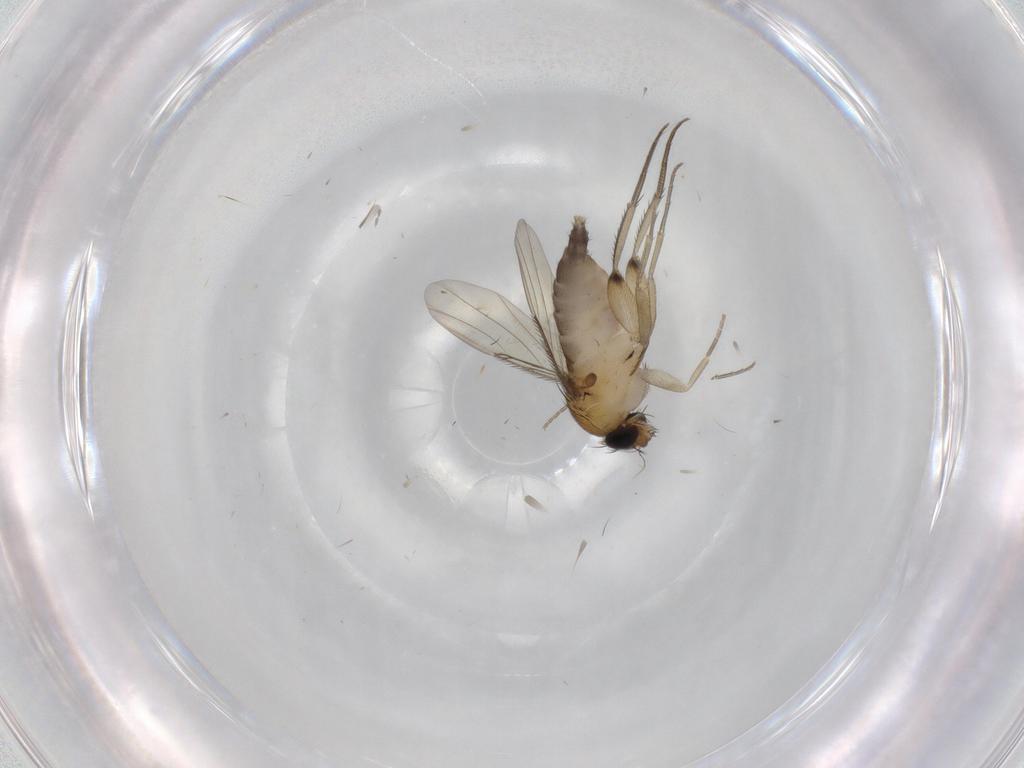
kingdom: Animalia
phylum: Arthropoda
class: Insecta
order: Diptera
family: Phoridae
